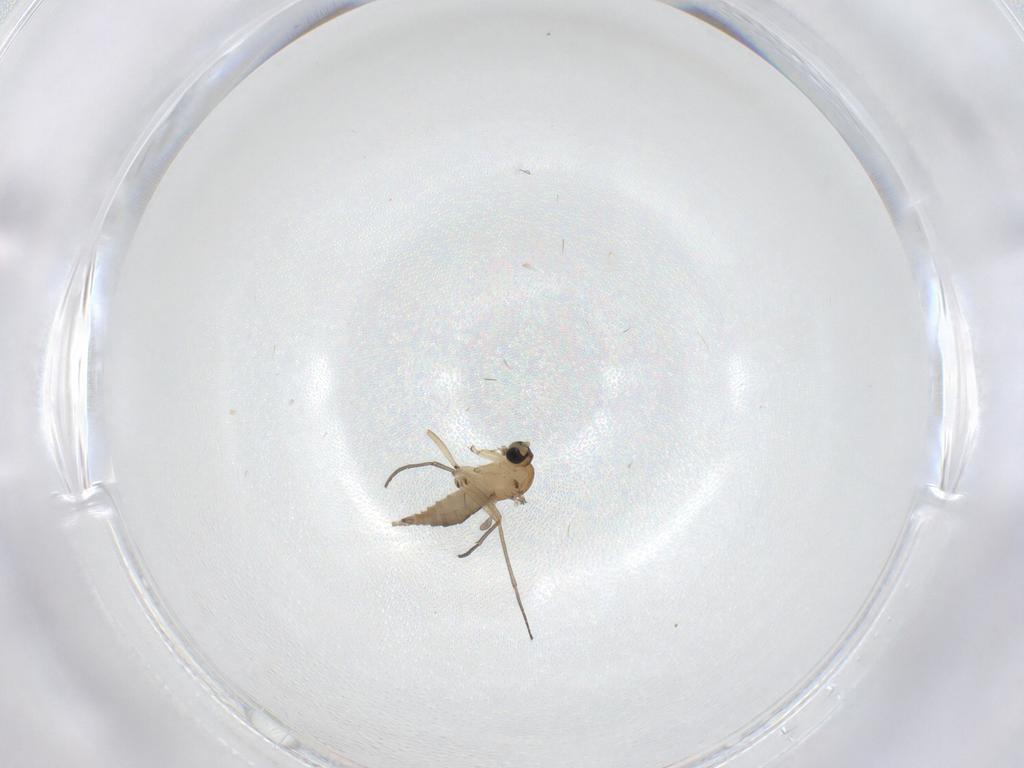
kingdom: Animalia
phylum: Arthropoda
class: Insecta
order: Diptera
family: Sciaridae
